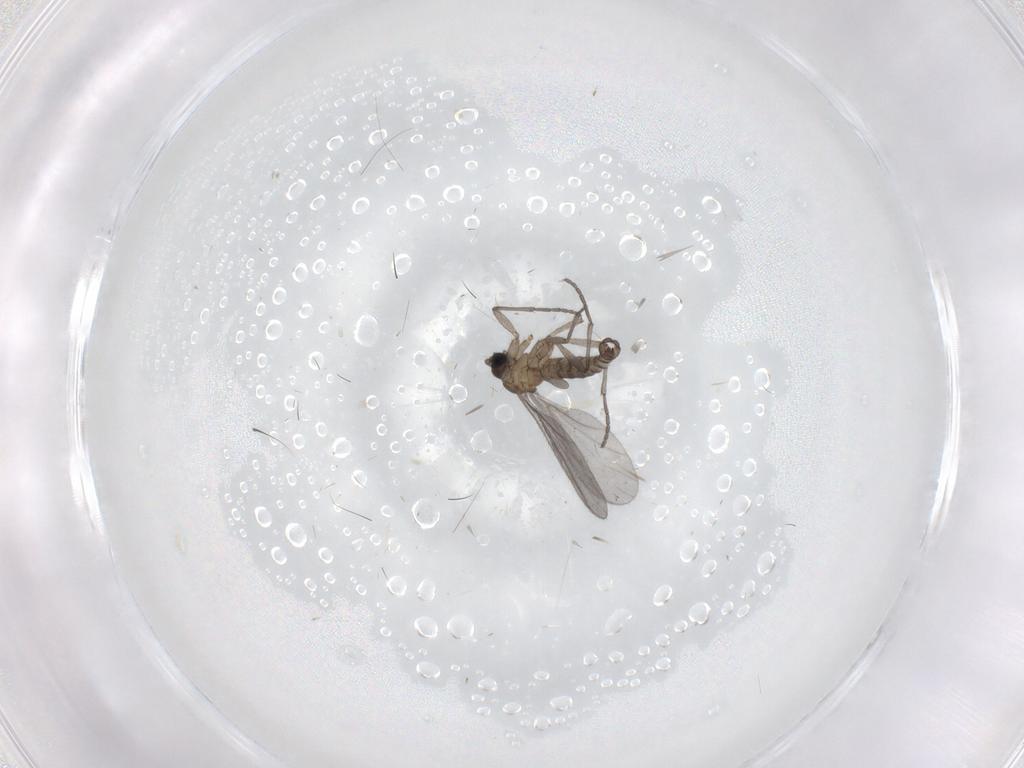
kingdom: Animalia
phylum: Arthropoda
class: Insecta
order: Diptera
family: Sciaridae
